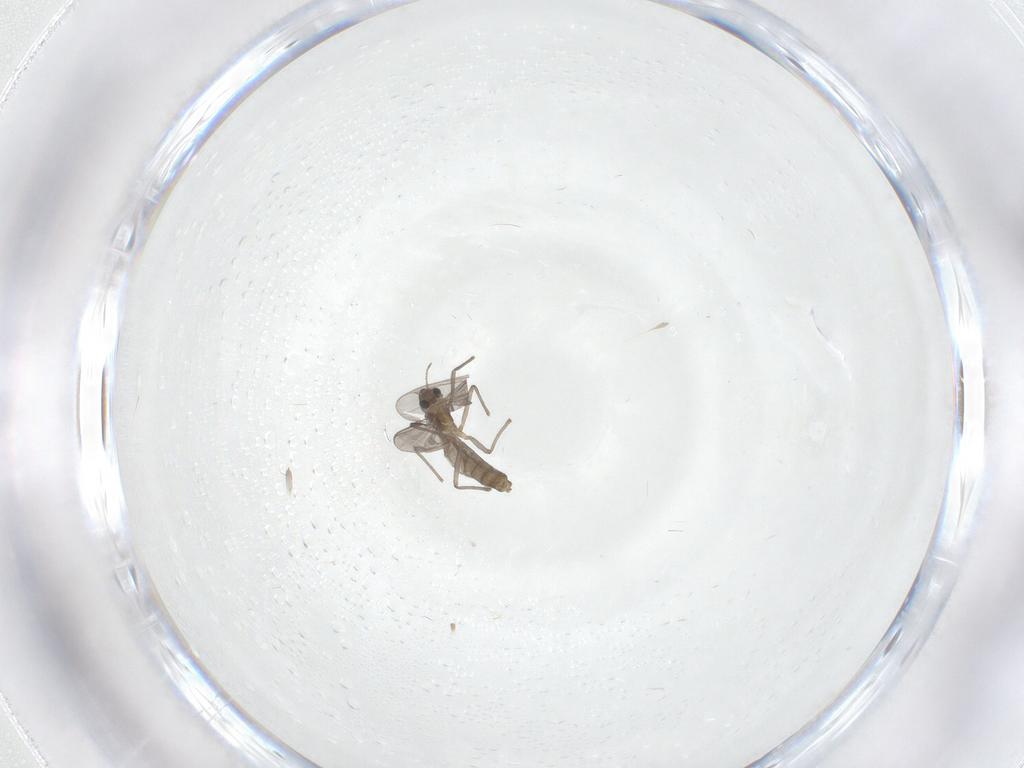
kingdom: Animalia
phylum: Arthropoda
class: Insecta
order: Diptera
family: Chironomidae
